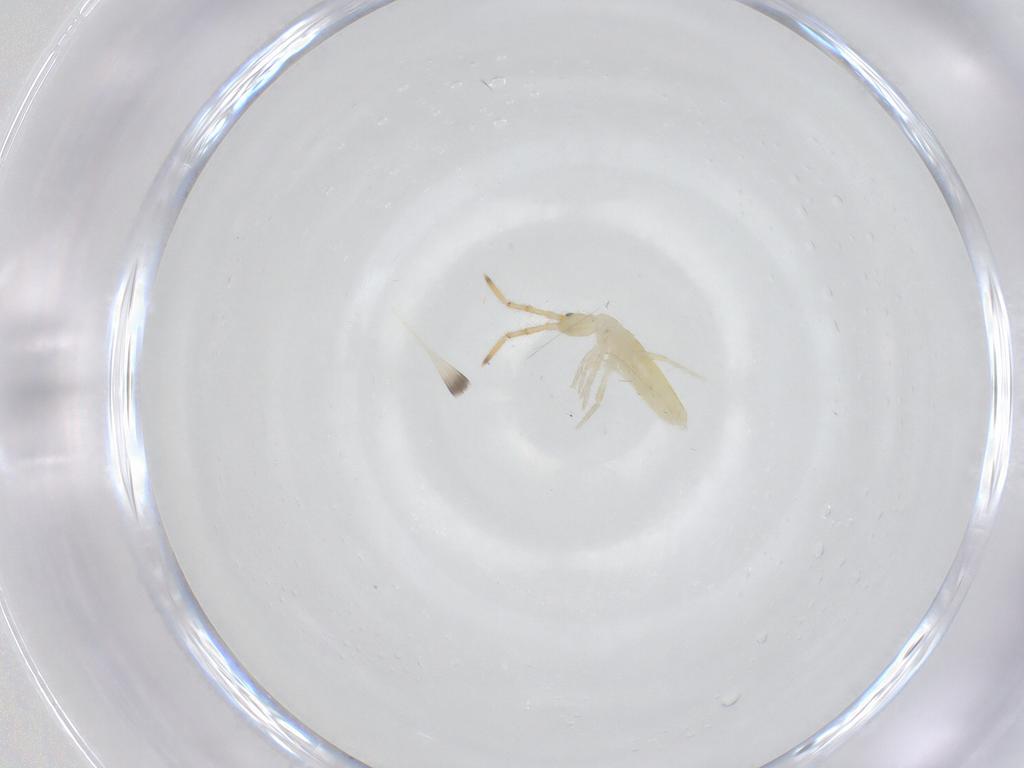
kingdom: Animalia
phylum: Arthropoda
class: Collembola
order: Entomobryomorpha
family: Entomobryidae
